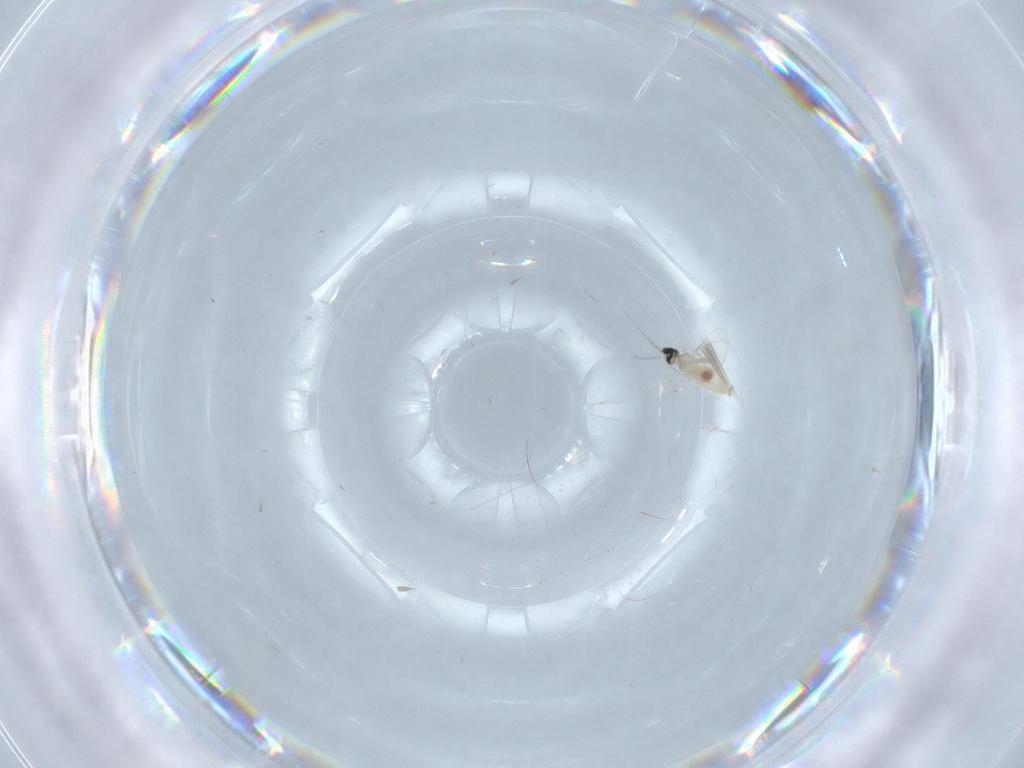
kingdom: Animalia
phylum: Arthropoda
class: Insecta
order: Diptera
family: Cecidomyiidae
